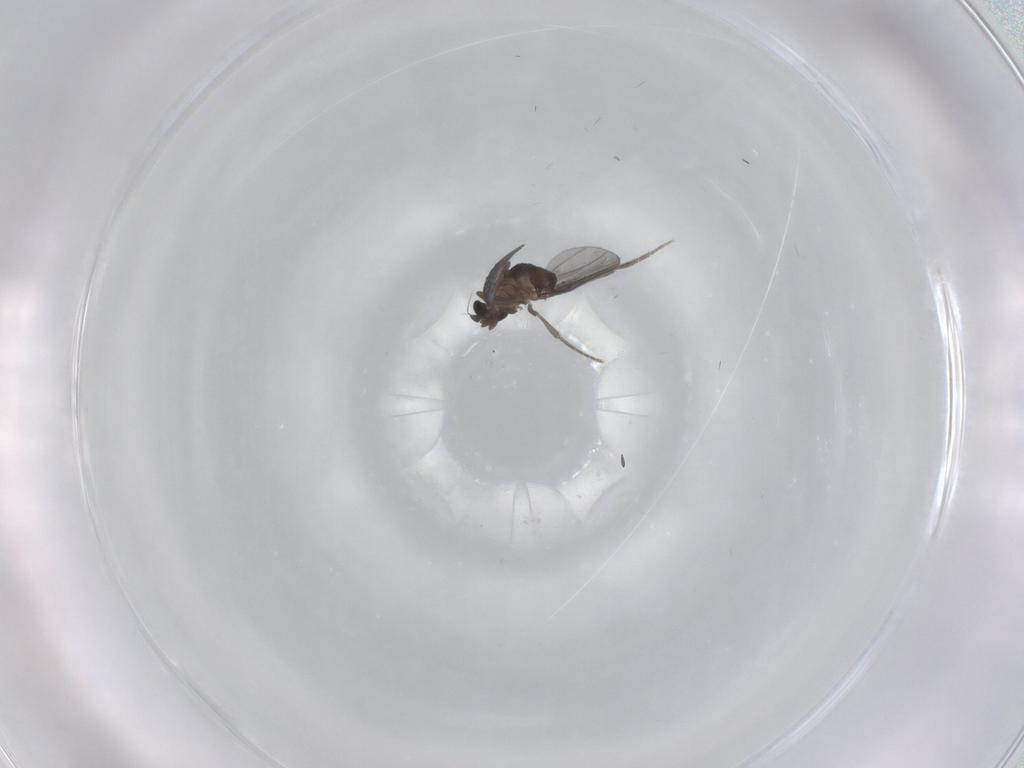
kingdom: Animalia
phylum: Arthropoda
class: Insecta
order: Diptera
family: Phoridae
